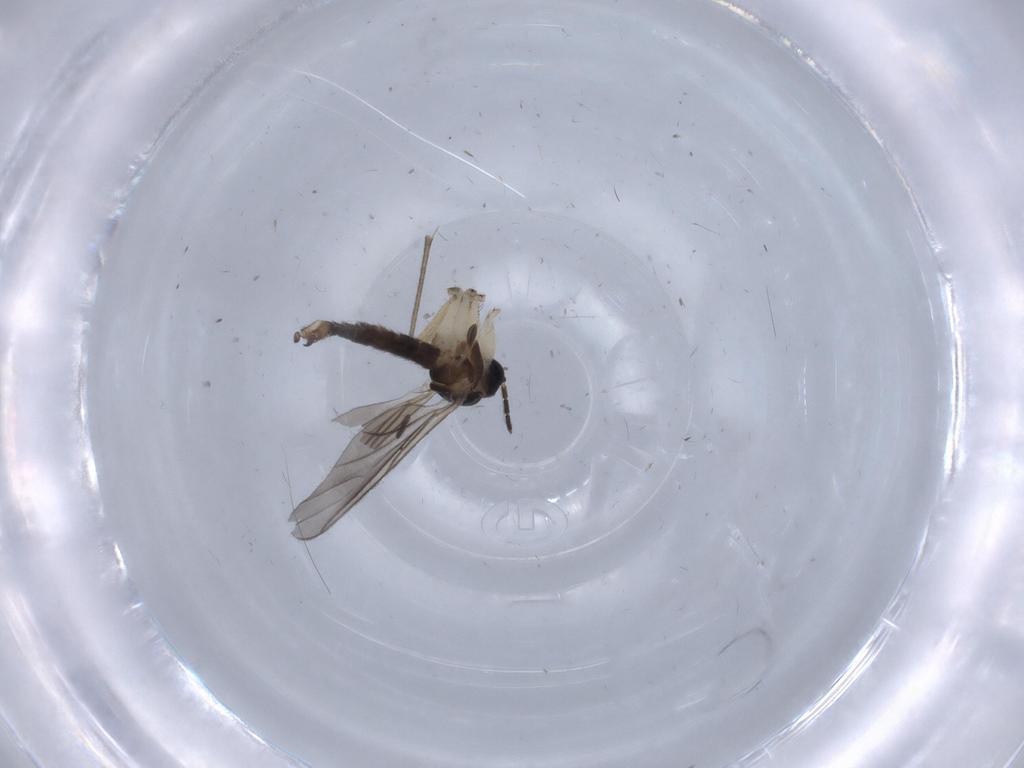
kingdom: Animalia
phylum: Arthropoda
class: Insecta
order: Diptera
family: Sciaridae
